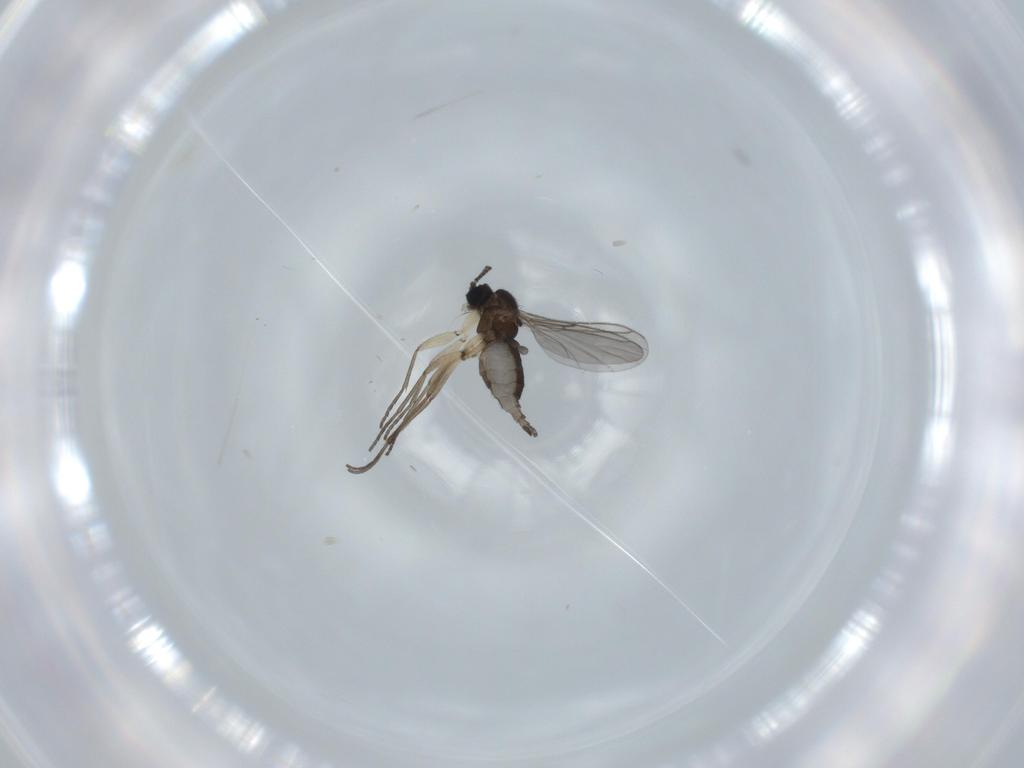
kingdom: Animalia
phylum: Arthropoda
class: Insecta
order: Diptera
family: Sciaridae
